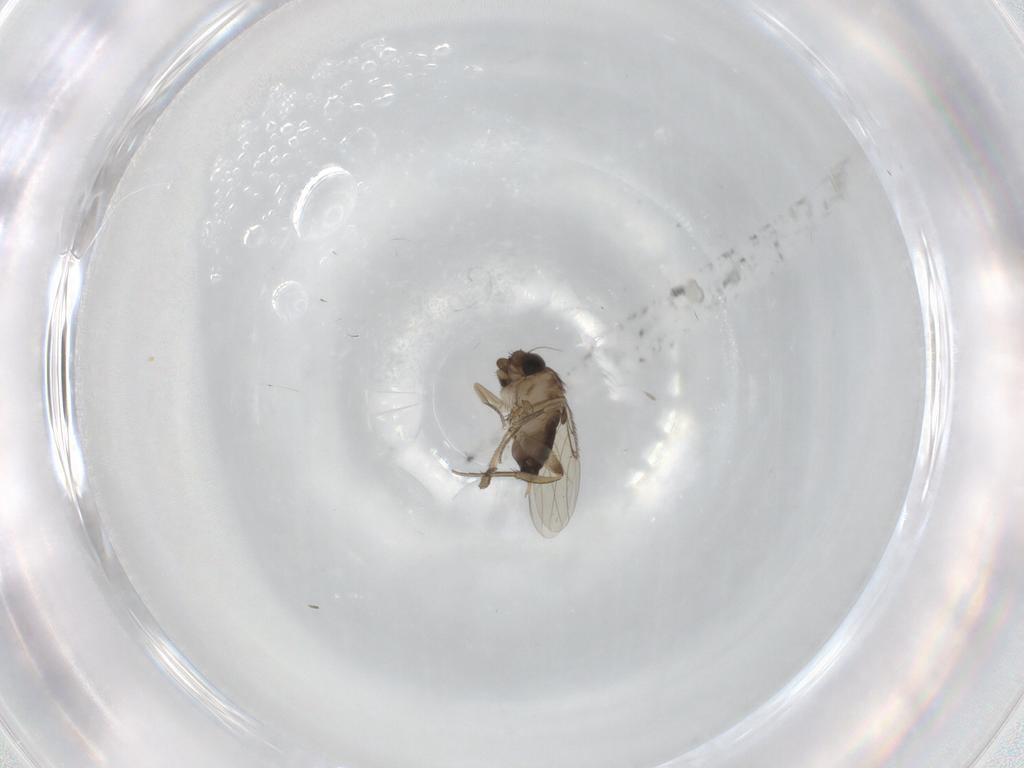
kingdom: Animalia
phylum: Arthropoda
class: Insecta
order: Diptera
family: Phoridae
